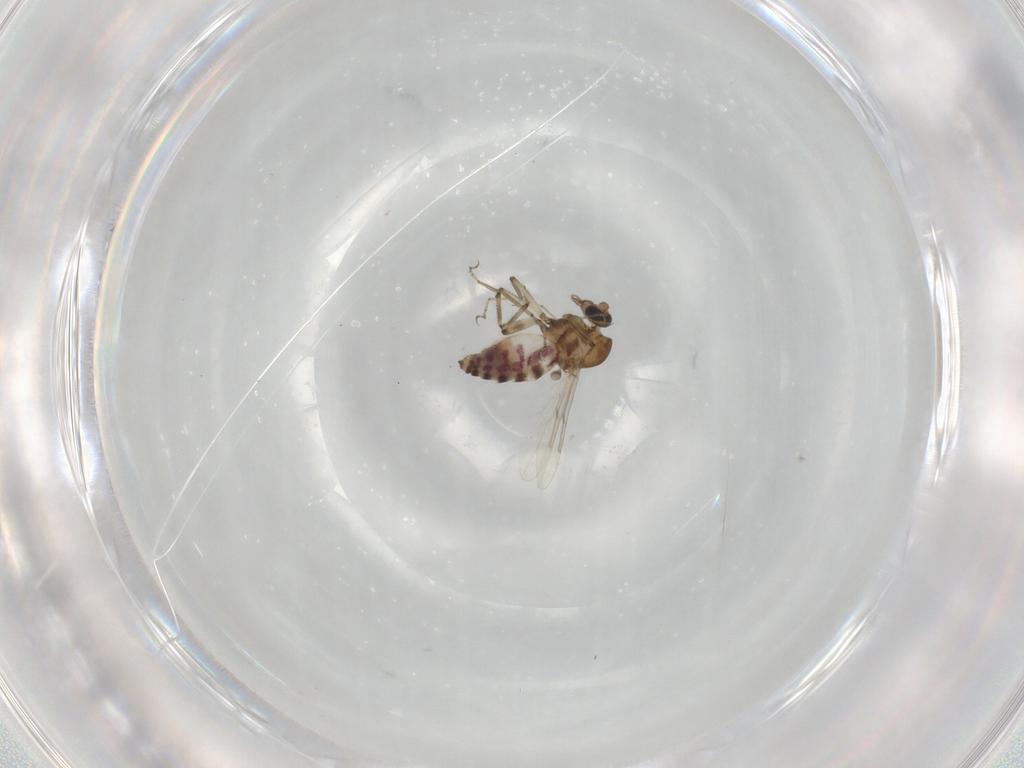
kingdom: Animalia
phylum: Arthropoda
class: Insecta
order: Diptera
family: Ceratopogonidae
